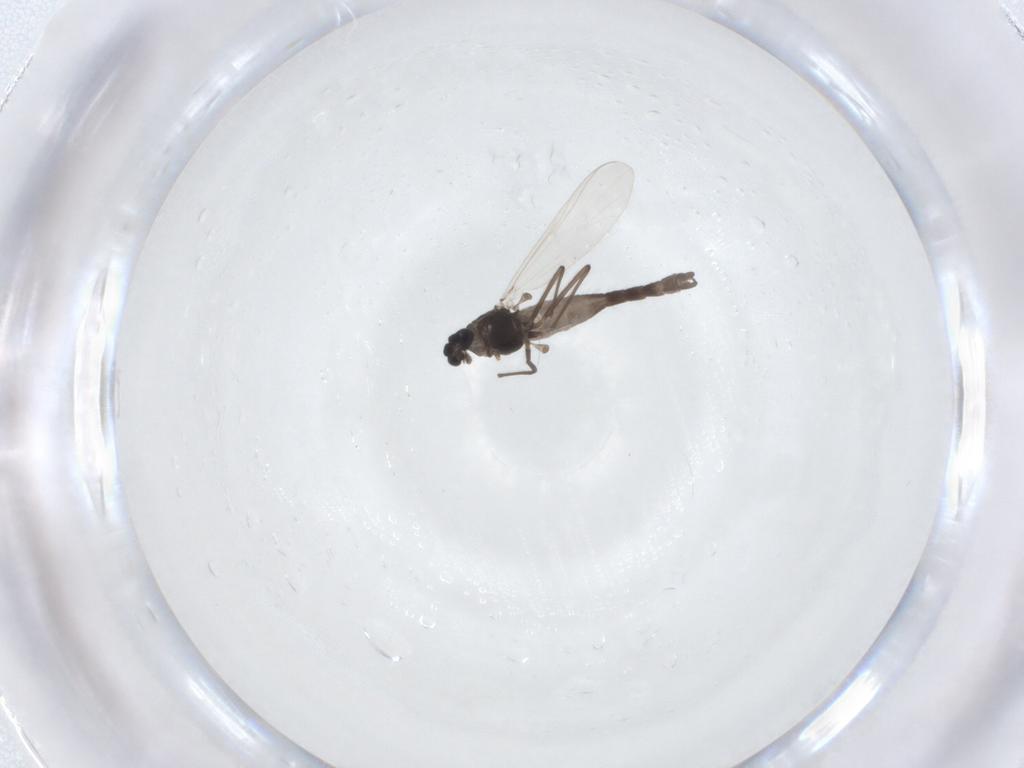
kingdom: Animalia
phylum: Arthropoda
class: Insecta
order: Diptera
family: Chironomidae
